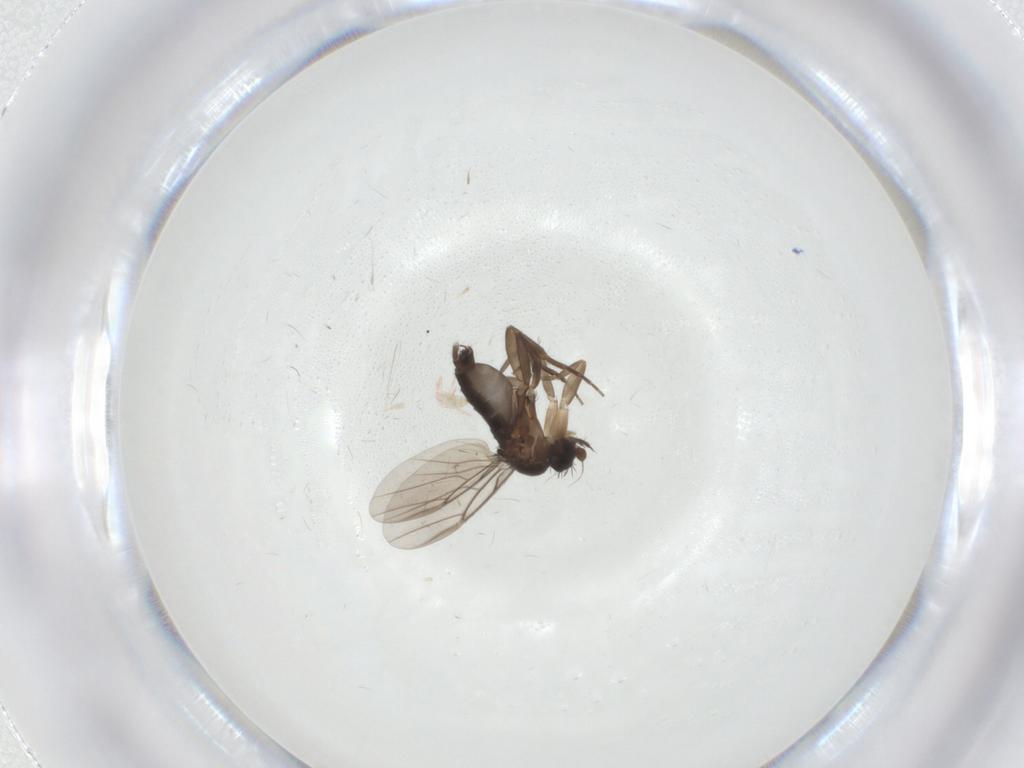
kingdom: Animalia
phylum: Arthropoda
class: Insecta
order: Diptera
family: Phoridae
